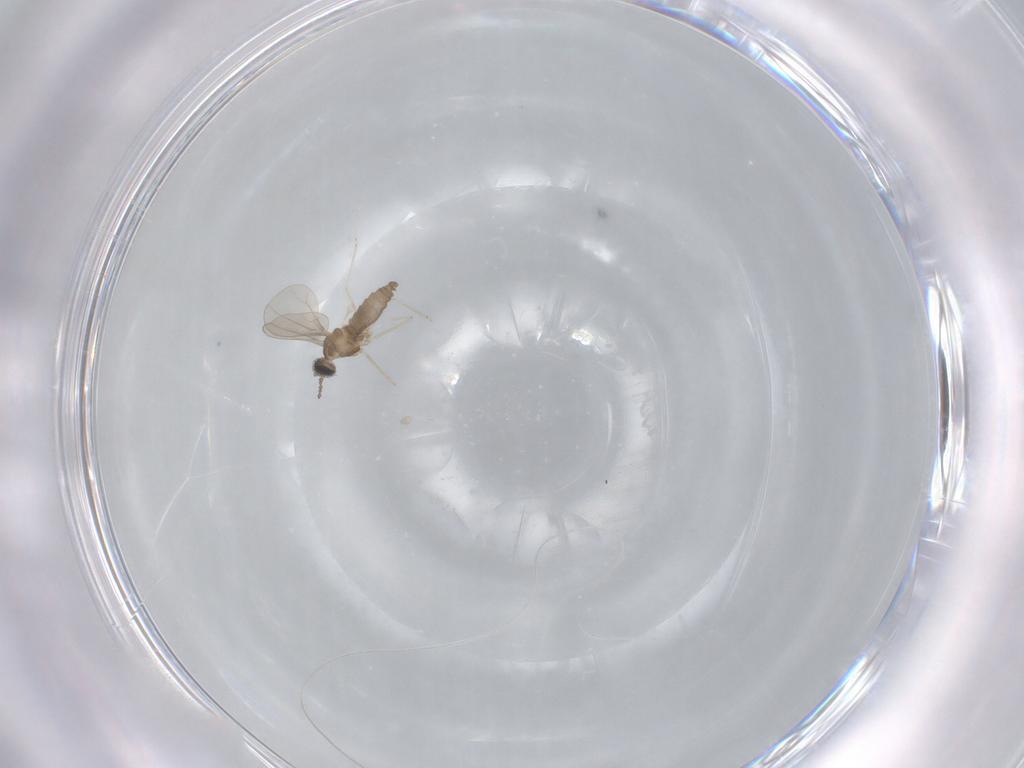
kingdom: Animalia
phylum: Arthropoda
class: Insecta
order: Diptera
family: Cecidomyiidae
